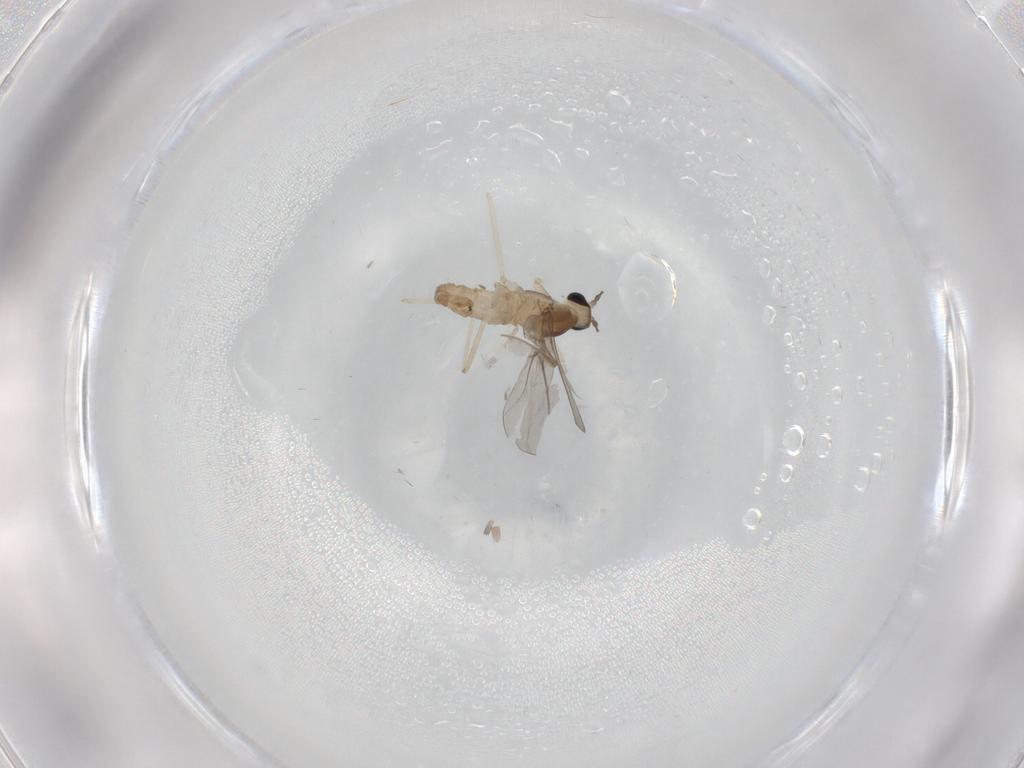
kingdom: Animalia
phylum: Arthropoda
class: Insecta
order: Diptera
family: Cecidomyiidae
